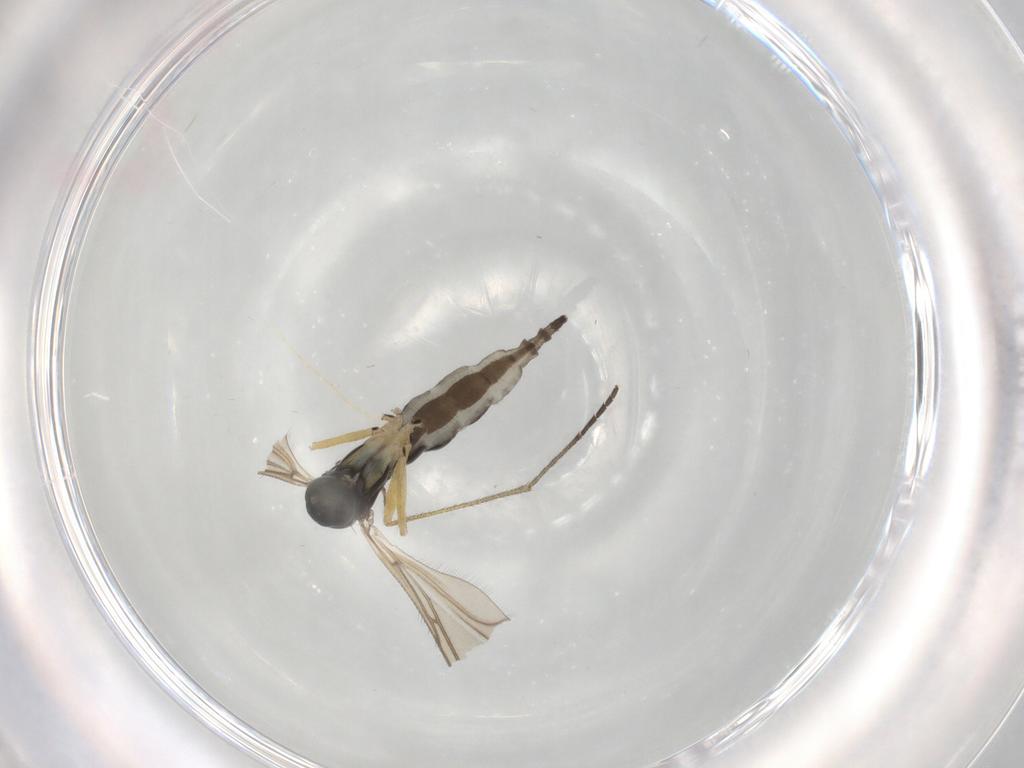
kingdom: Animalia
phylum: Arthropoda
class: Insecta
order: Diptera
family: Sciaridae
